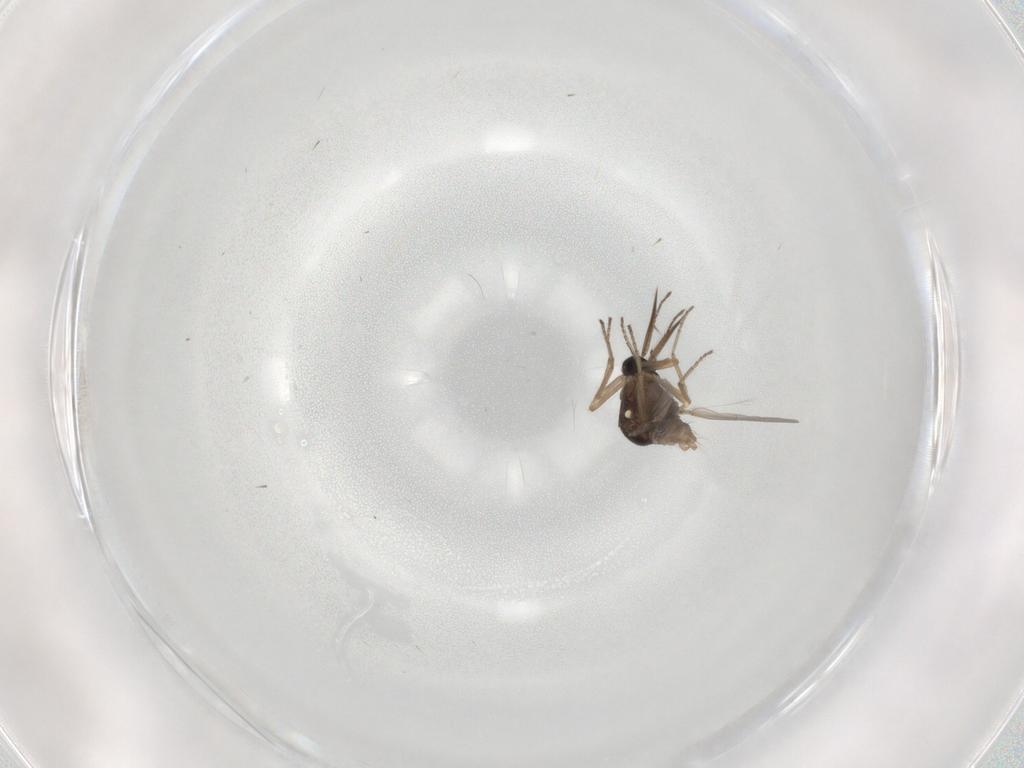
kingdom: Animalia
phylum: Arthropoda
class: Insecta
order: Diptera
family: Ceratopogonidae
